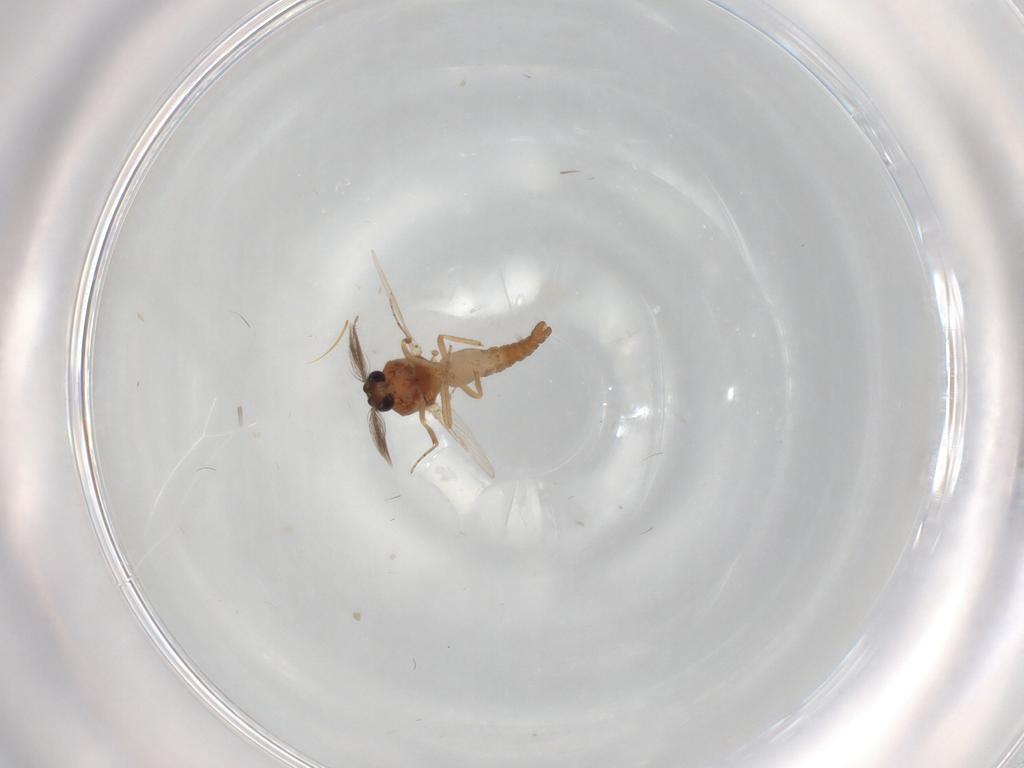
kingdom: Animalia
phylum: Arthropoda
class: Insecta
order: Diptera
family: Ceratopogonidae
